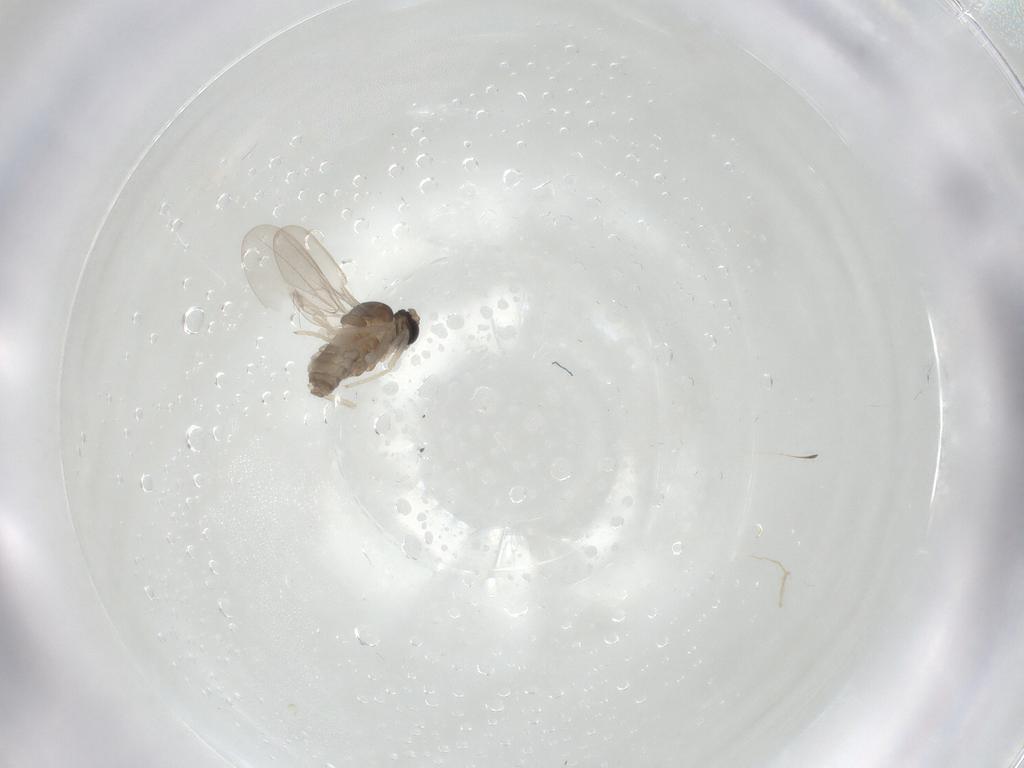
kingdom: Animalia
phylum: Arthropoda
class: Insecta
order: Diptera
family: Cecidomyiidae
